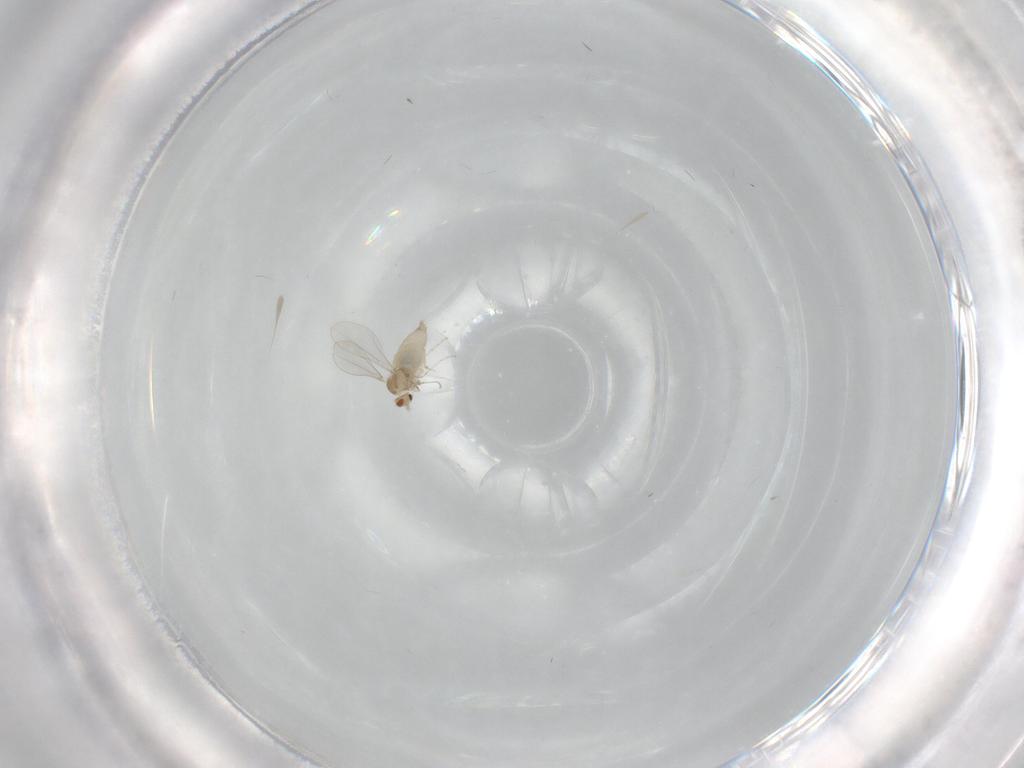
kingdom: Animalia
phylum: Arthropoda
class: Insecta
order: Diptera
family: Cecidomyiidae
